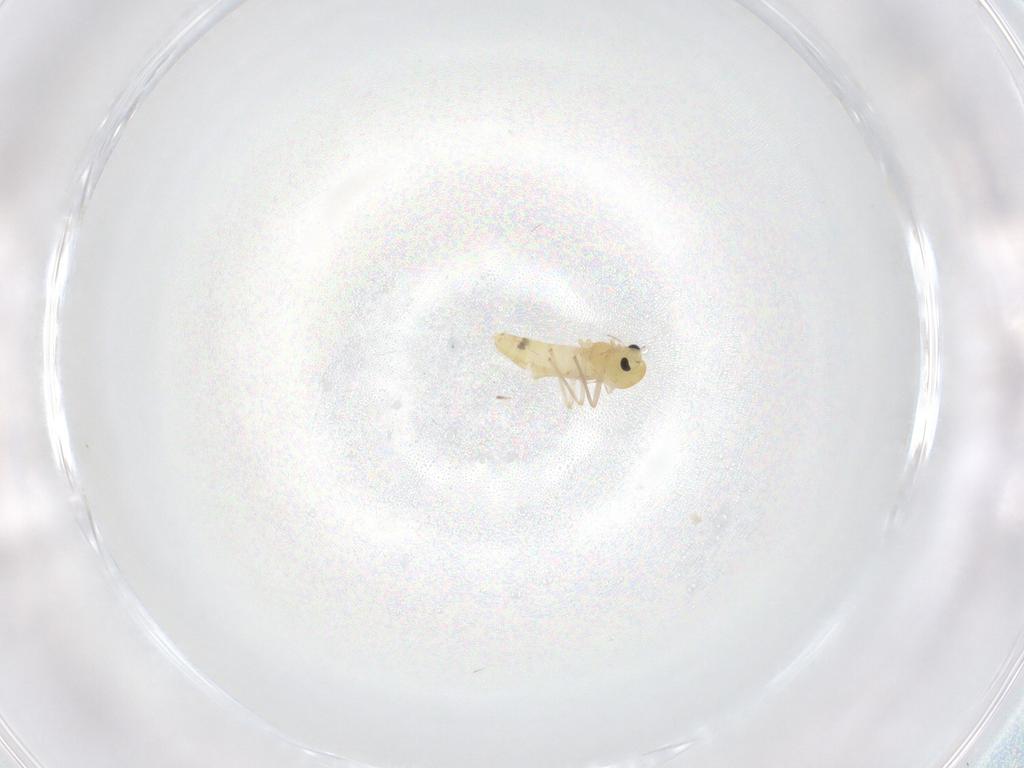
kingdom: Animalia
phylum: Arthropoda
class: Insecta
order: Diptera
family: Chironomidae
